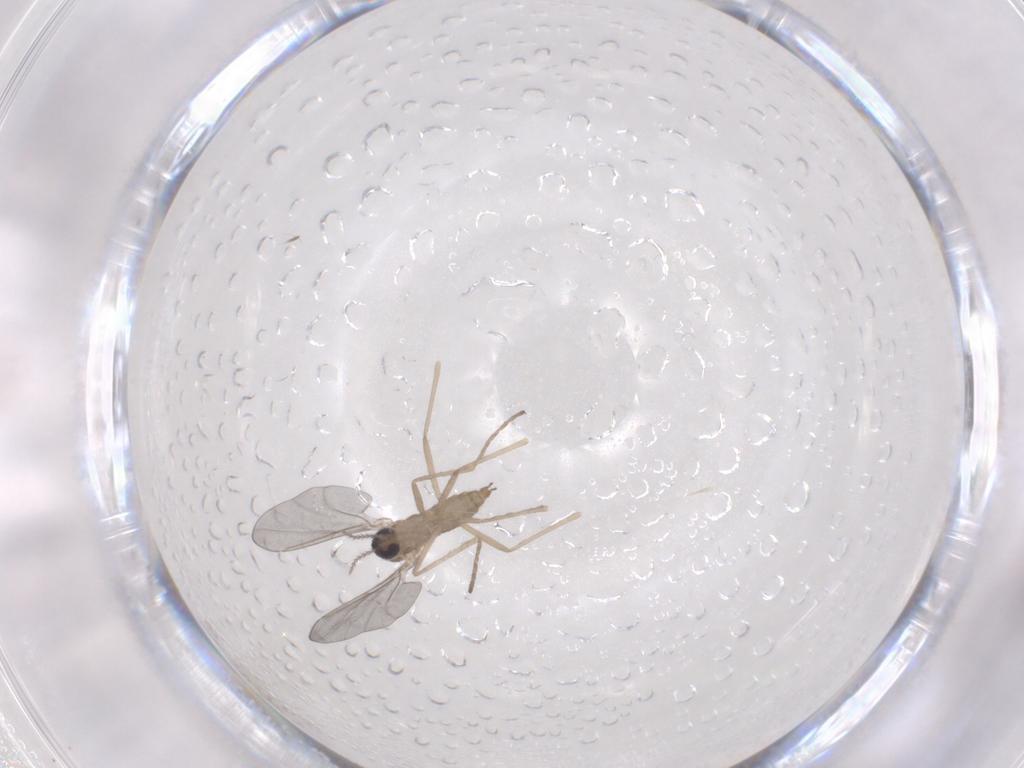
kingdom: Animalia
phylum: Arthropoda
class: Insecta
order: Diptera
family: Cecidomyiidae
